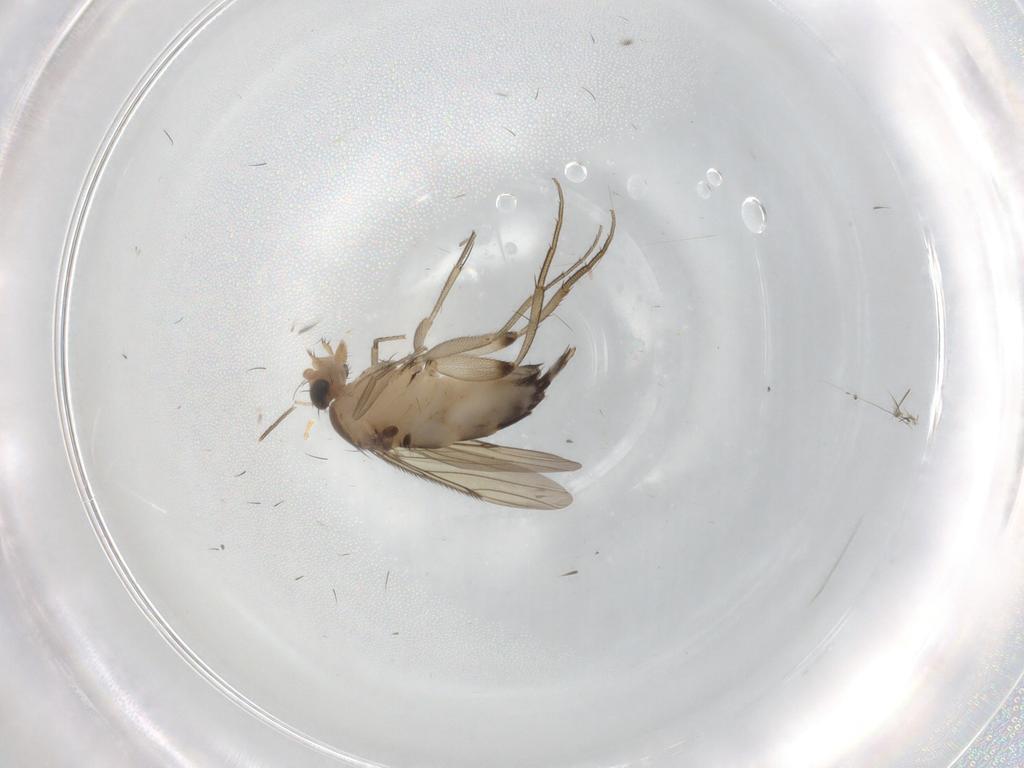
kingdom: Animalia
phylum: Arthropoda
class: Insecta
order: Diptera
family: Phoridae
